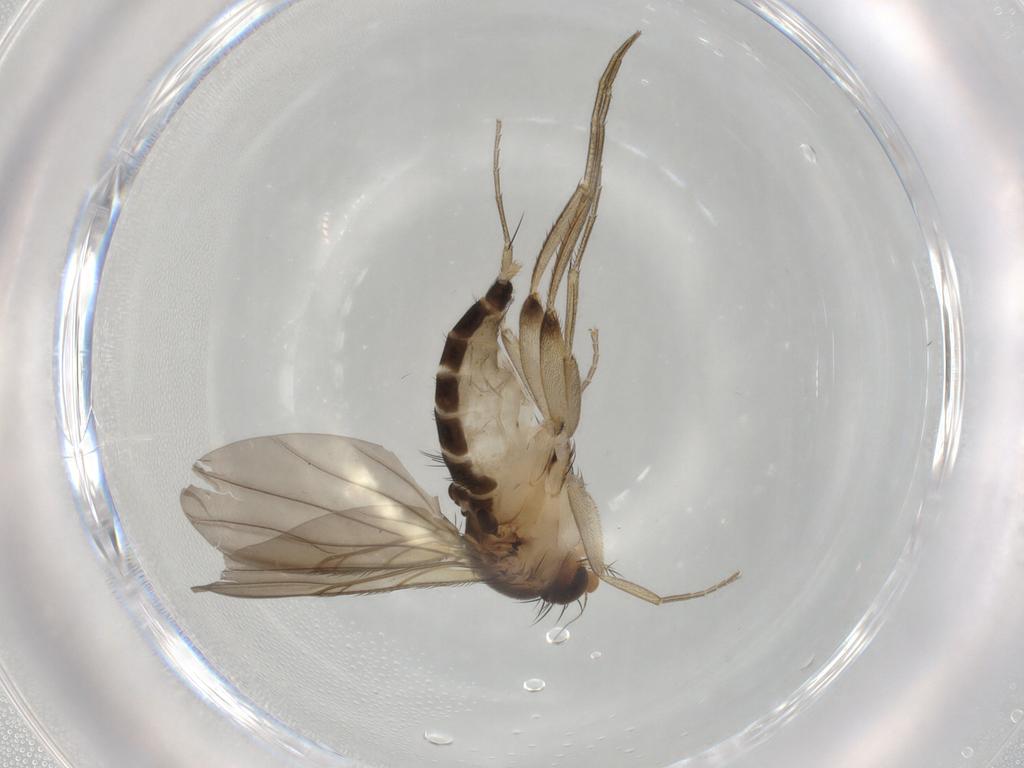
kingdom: Animalia
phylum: Arthropoda
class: Insecta
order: Diptera
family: Phoridae
